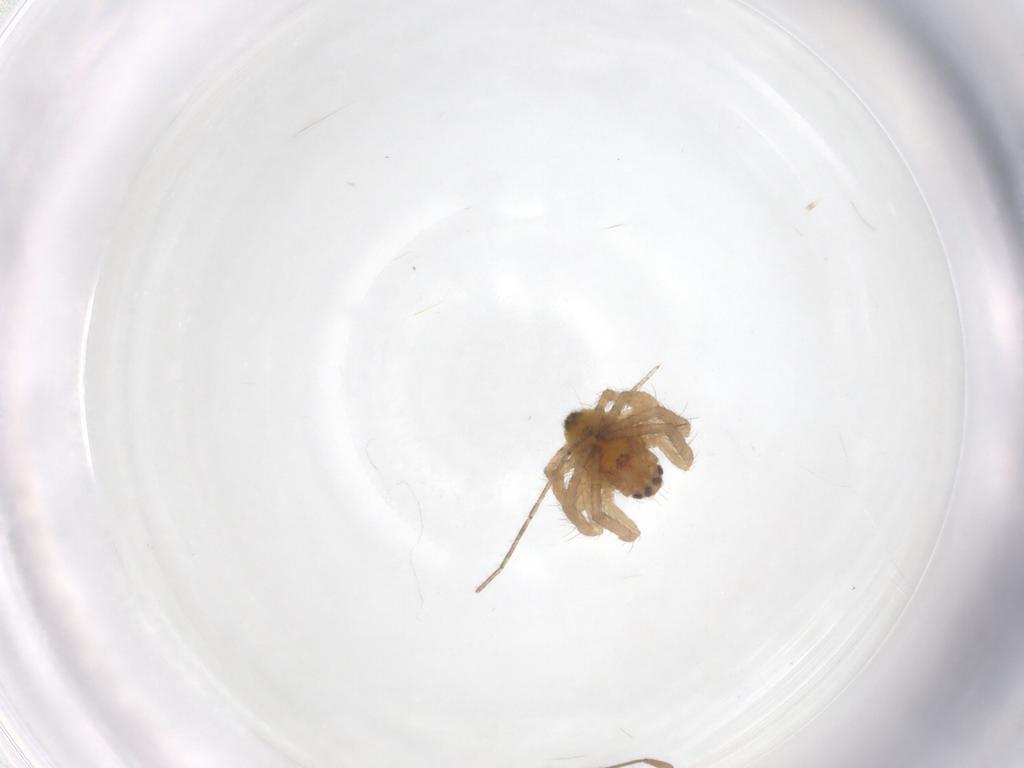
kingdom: Animalia
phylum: Arthropoda
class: Arachnida
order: Araneae
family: Araneidae
